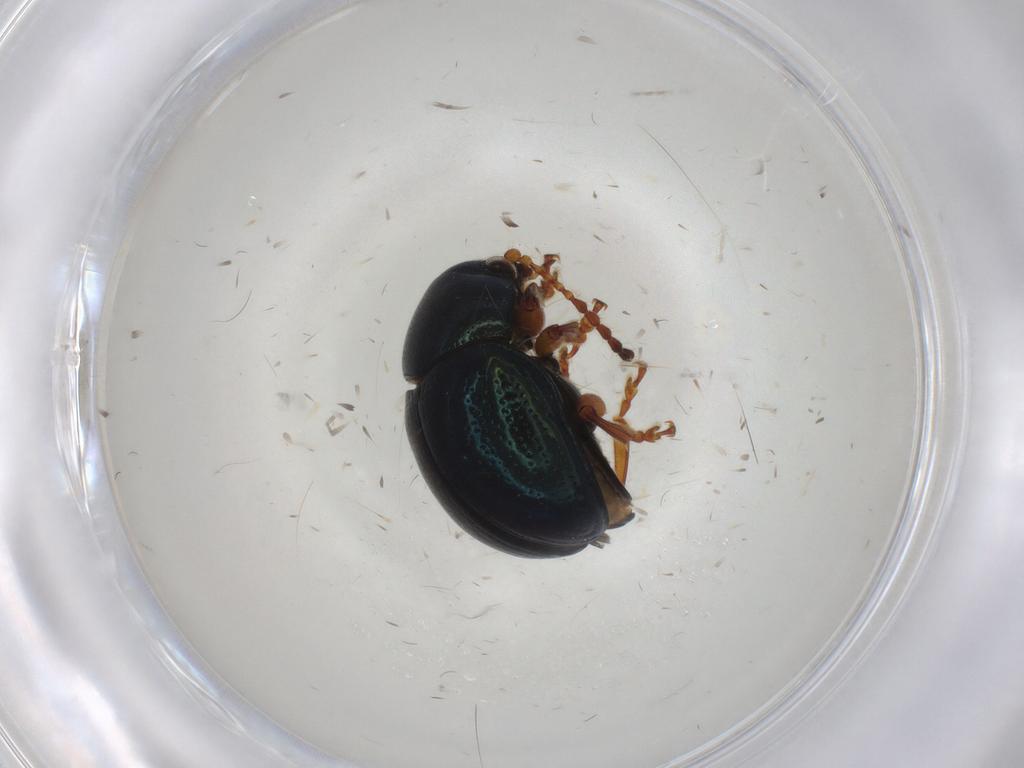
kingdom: Animalia
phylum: Arthropoda
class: Insecta
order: Coleoptera
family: Chrysomelidae
